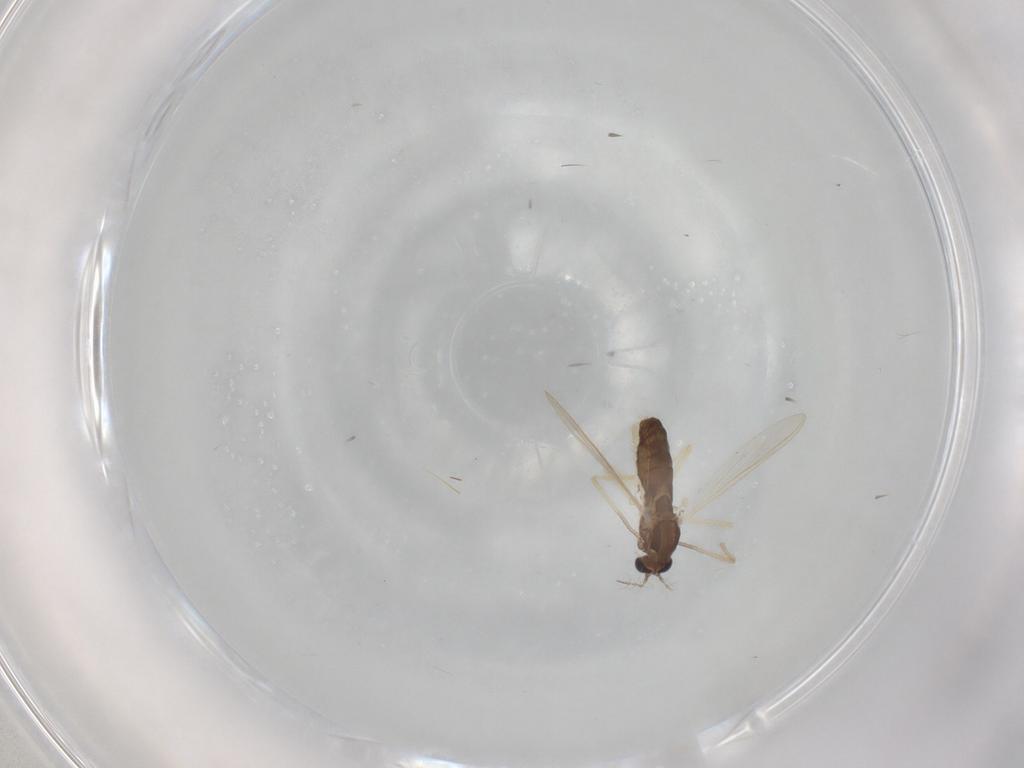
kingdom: Animalia
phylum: Arthropoda
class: Insecta
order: Diptera
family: Chironomidae
